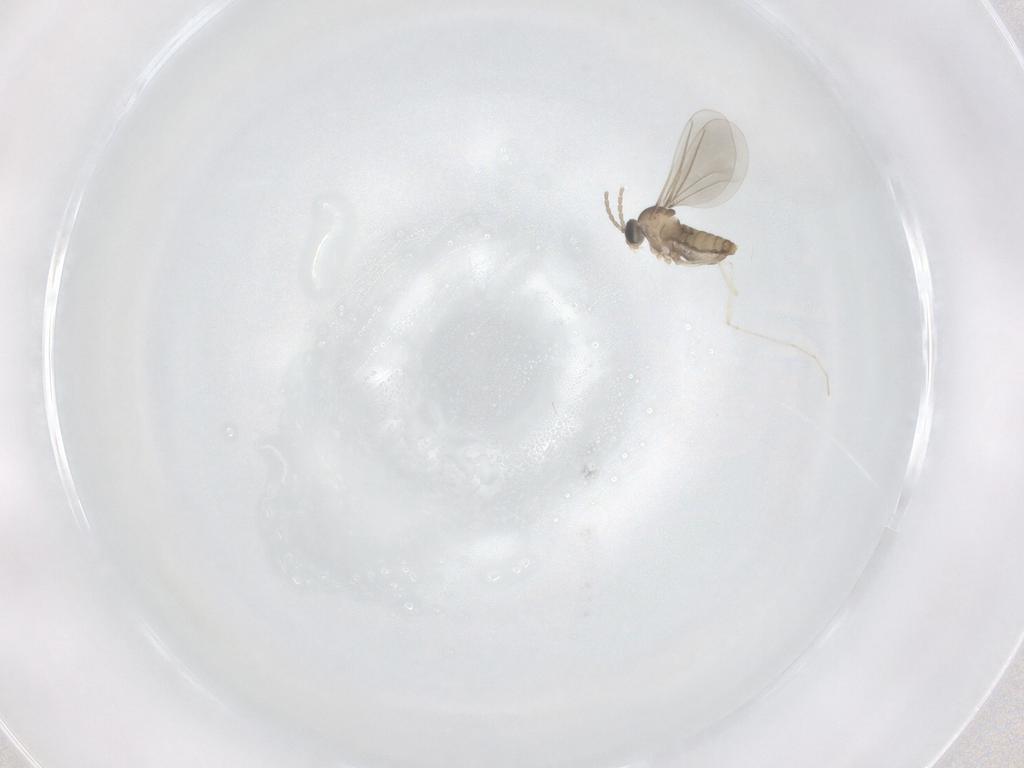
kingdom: Animalia
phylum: Arthropoda
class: Insecta
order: Diptera
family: Cecidomyiidae
